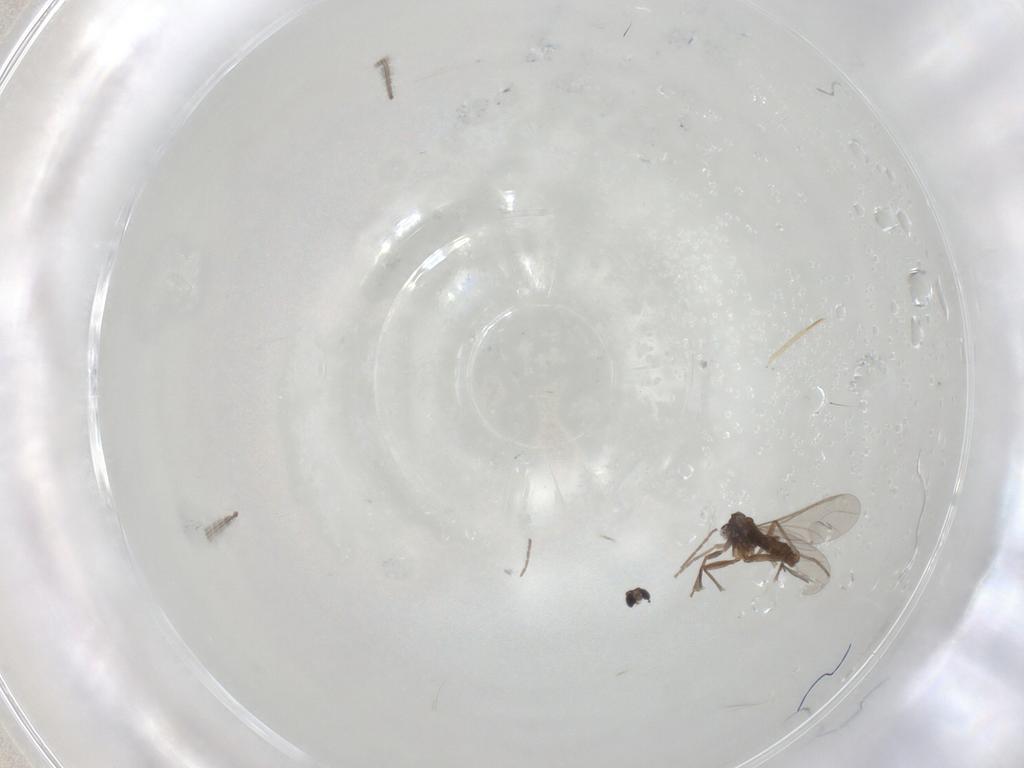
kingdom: Animalia
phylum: Arthropoda
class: Insecta
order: Diptera
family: Sciaridae
